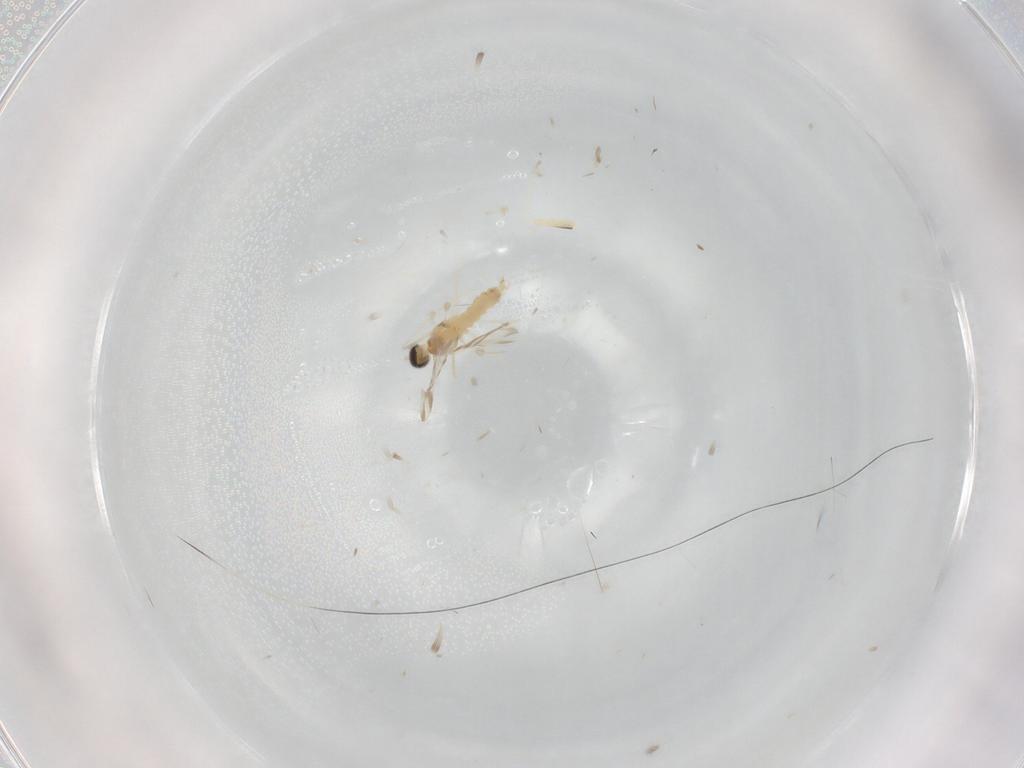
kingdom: Animalia
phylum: Arthropoda
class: Insecta
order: Diptera
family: Cecidomyiidae
